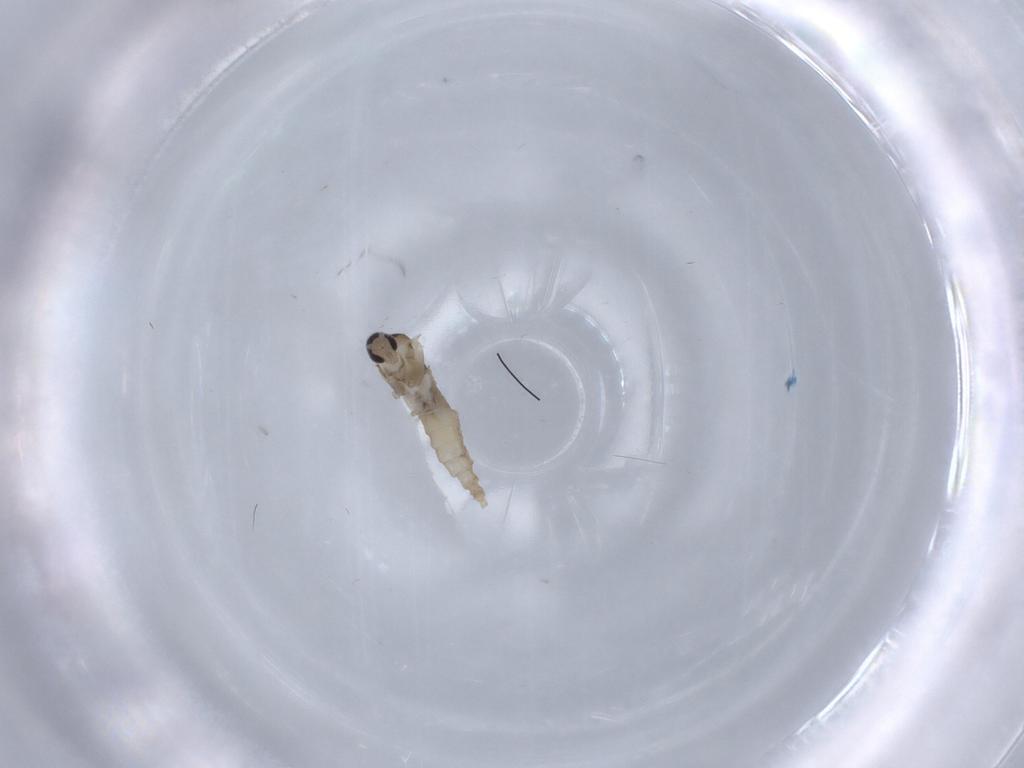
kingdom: Animalia
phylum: Arthropoda
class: Insecta
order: Diptera
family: Cecidomyiidae
